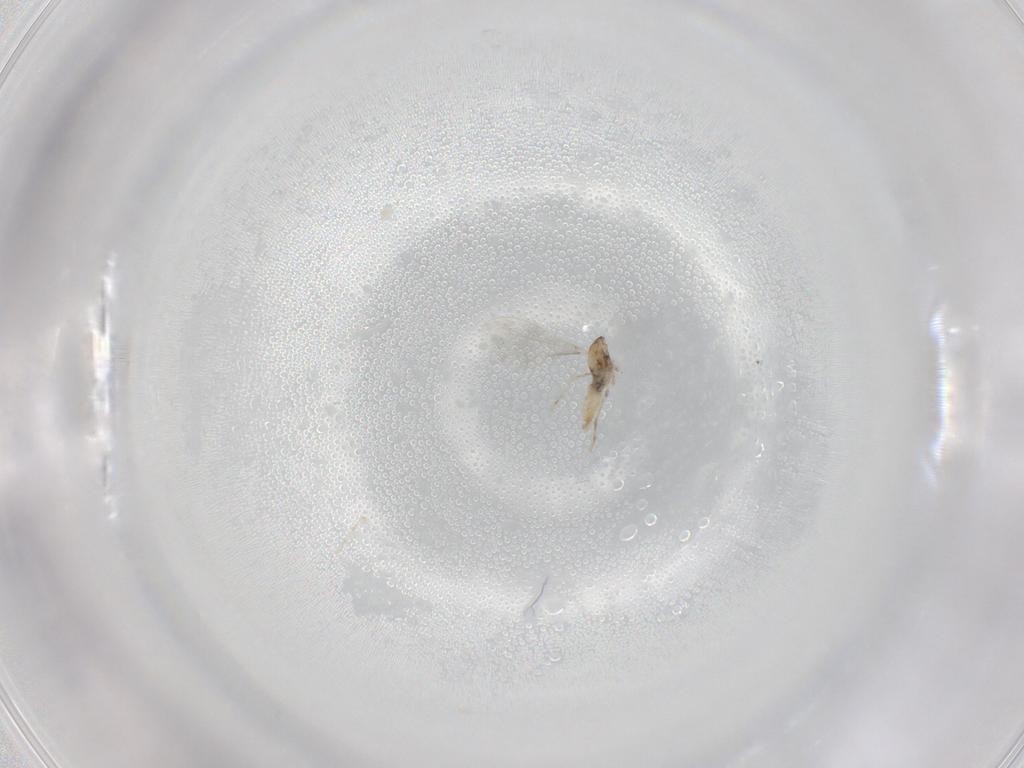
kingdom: Animalia
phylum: Arthropoda
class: Insecta
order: Diptera
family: Cecidomyiidae
